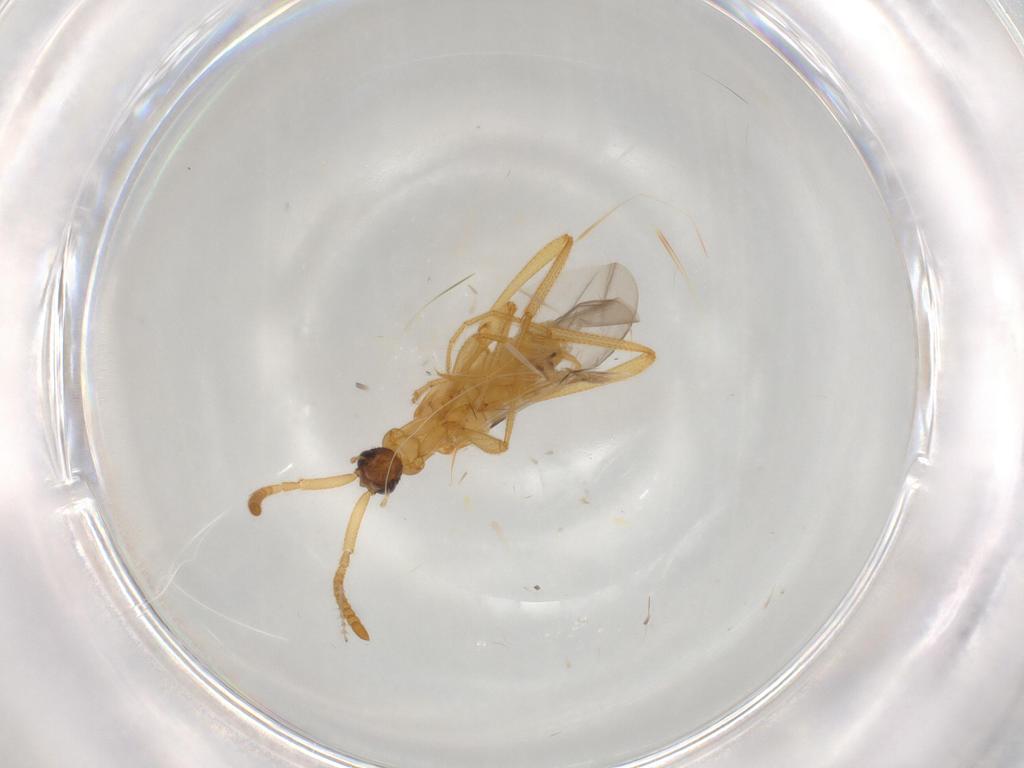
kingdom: Animalia
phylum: Arthropoda
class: Insecta
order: Coleoptera
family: Staphylinidae
